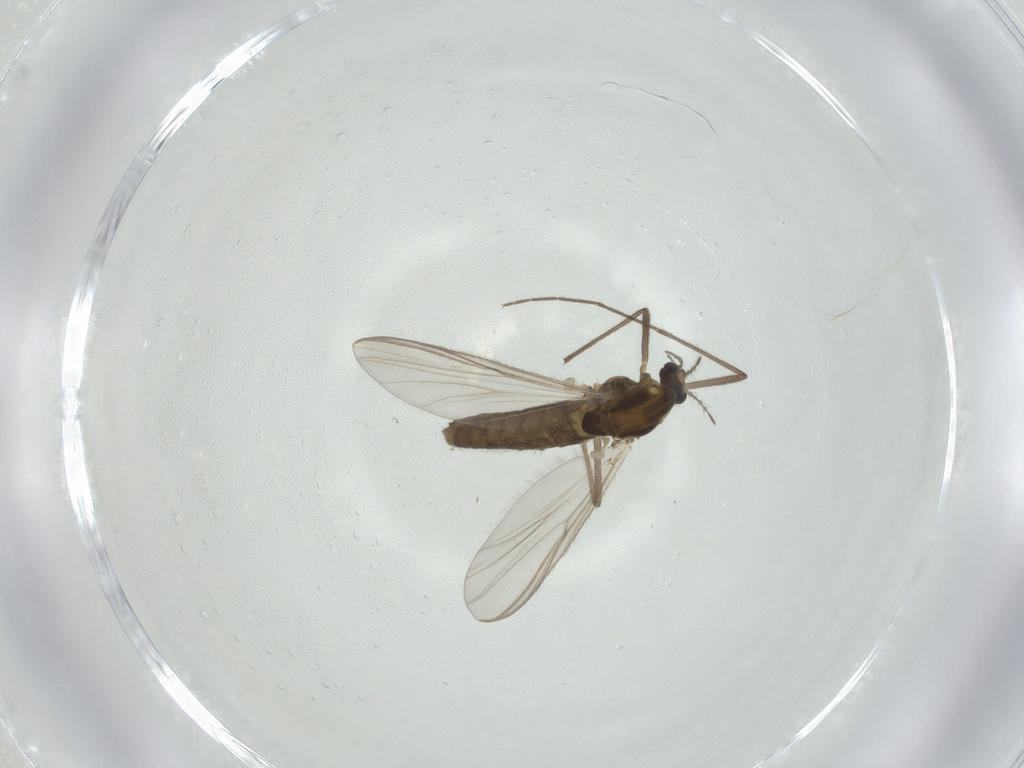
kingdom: Animalia
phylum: Arthropoda
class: Insecta
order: Diptera
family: Chironomidae
